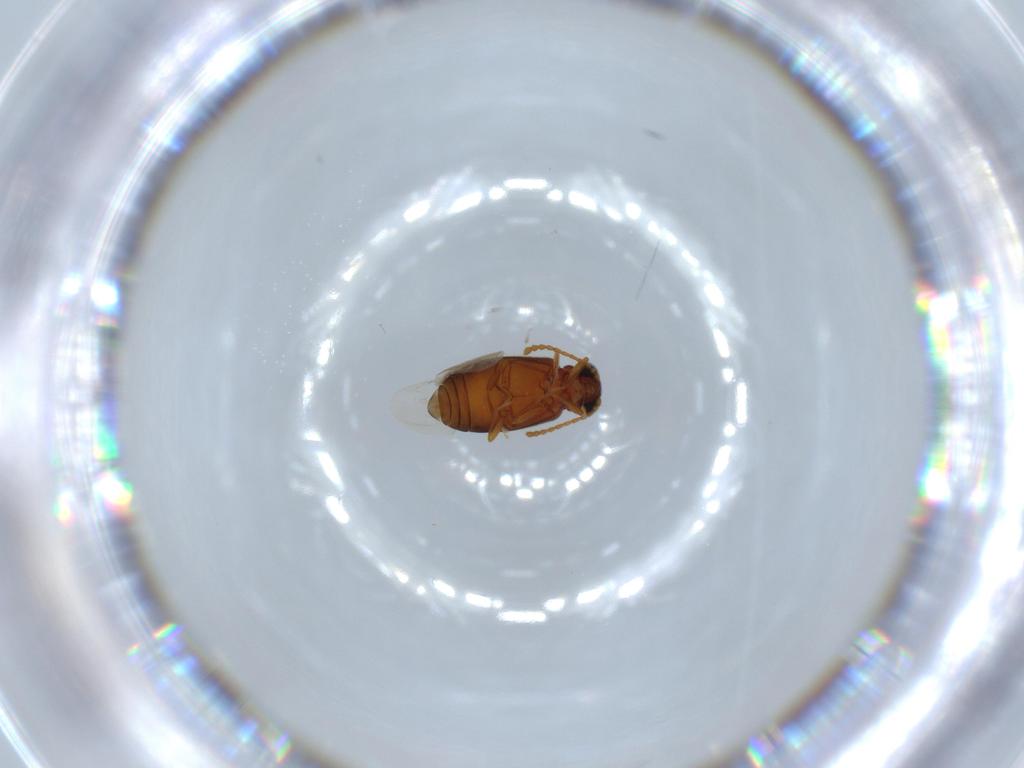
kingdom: Animalia
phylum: Arthropoda
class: Insecta
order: Coleoptera
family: Aderidae
